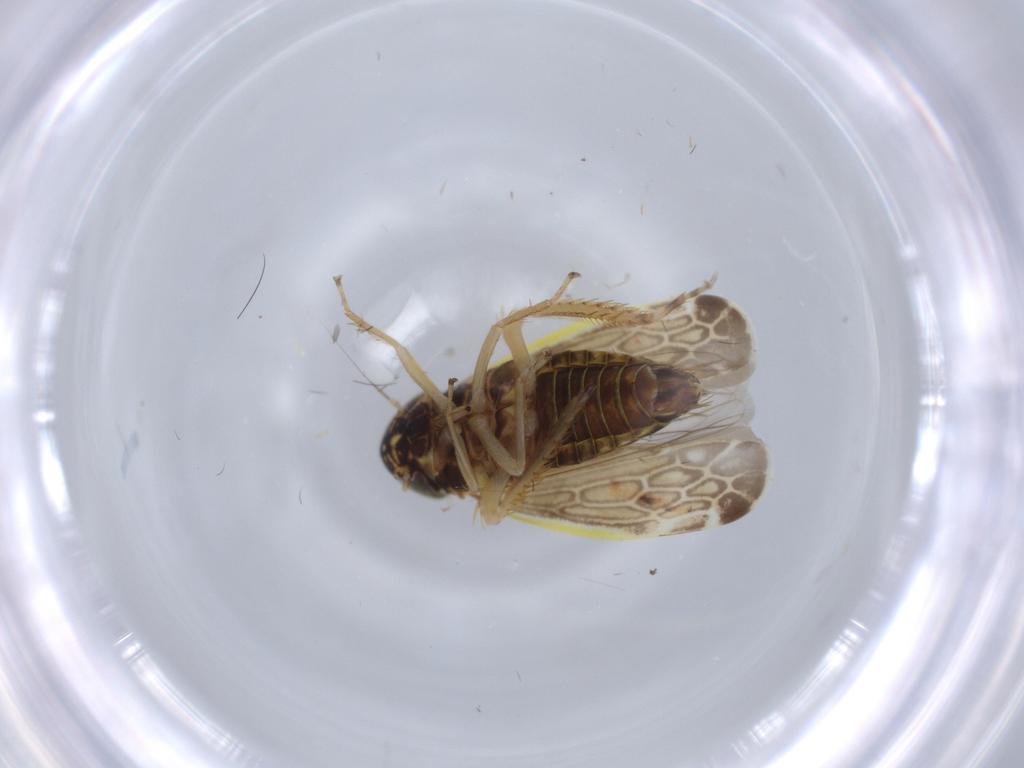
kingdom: Animalia
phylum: Arthropoda
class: Insecta
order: Hemiptera
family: Cicadellidae
